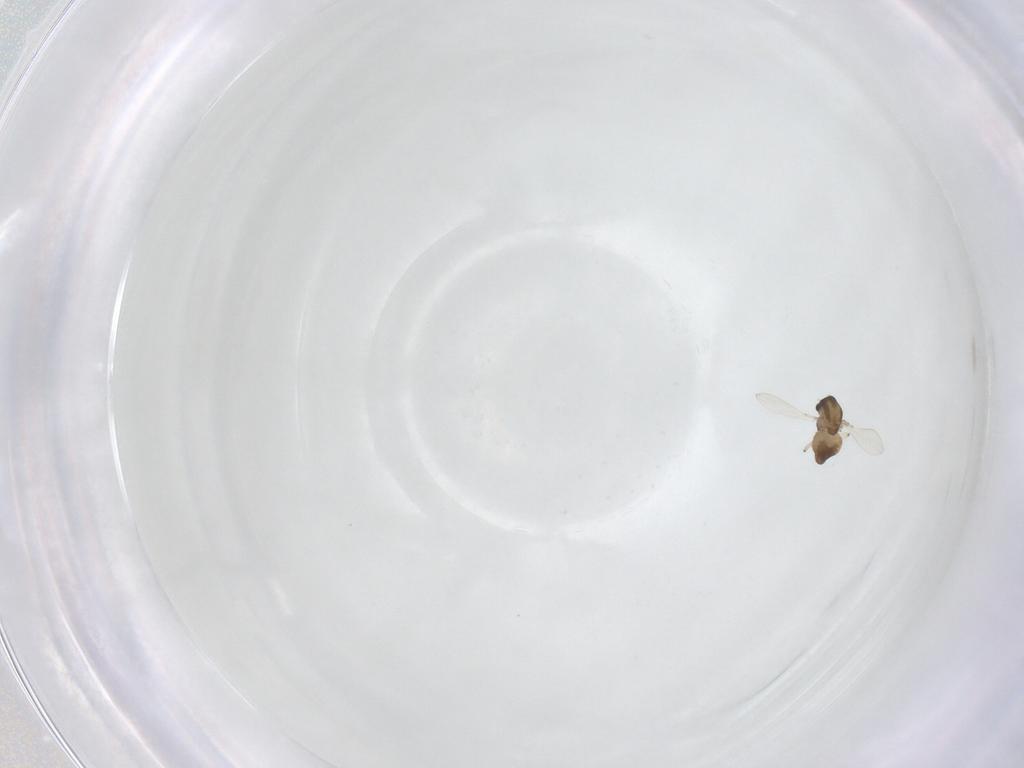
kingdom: Animalia
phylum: Arthropoda
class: Insecta
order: Diptera
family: Chironomidae
